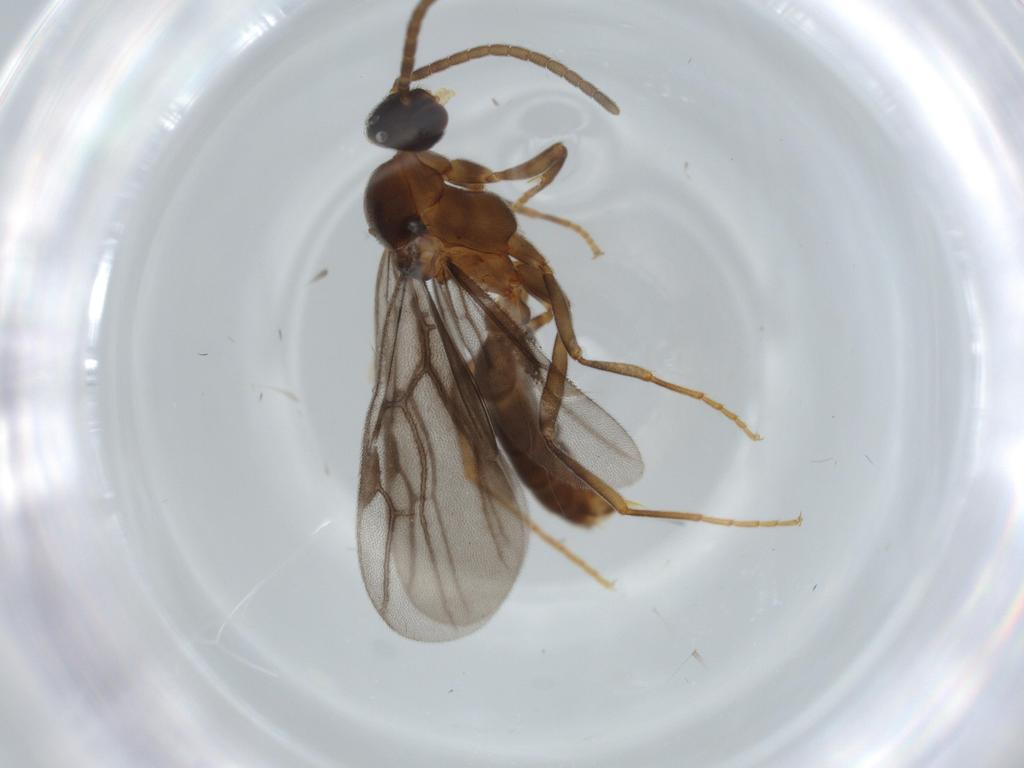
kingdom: Animalia
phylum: Arthropoda
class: Insecta
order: Hymenoptera
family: Formicidae
